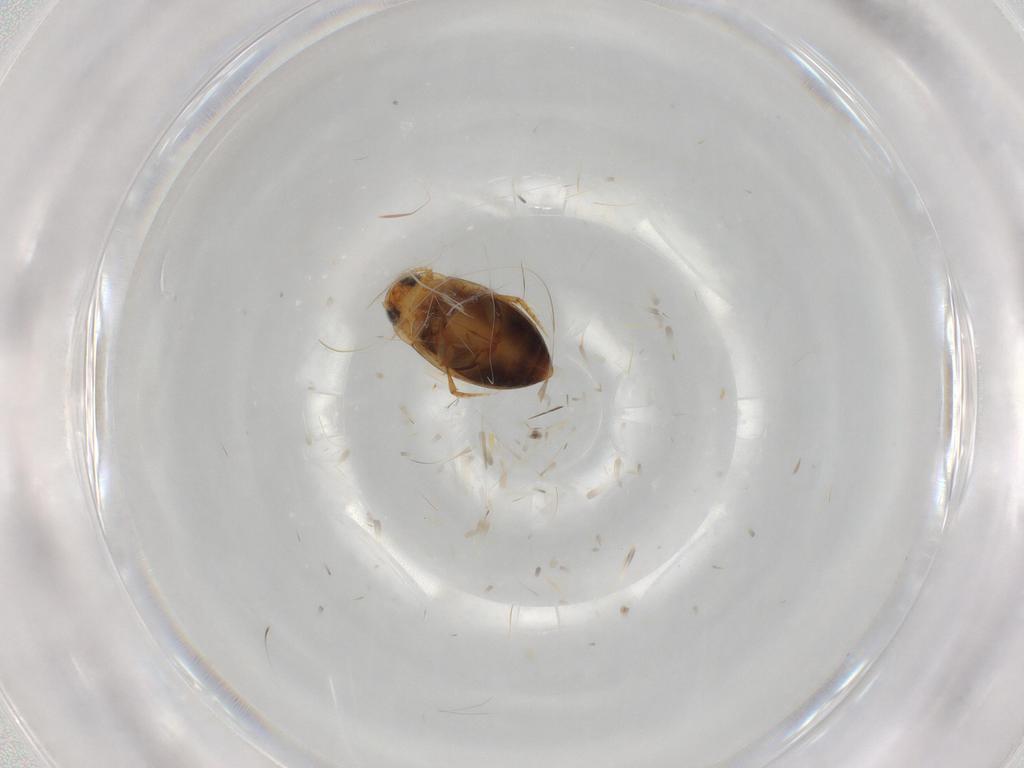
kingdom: Animalia
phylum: Arthropoda
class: Insecta
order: Coleoptera
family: Dytiscidae
